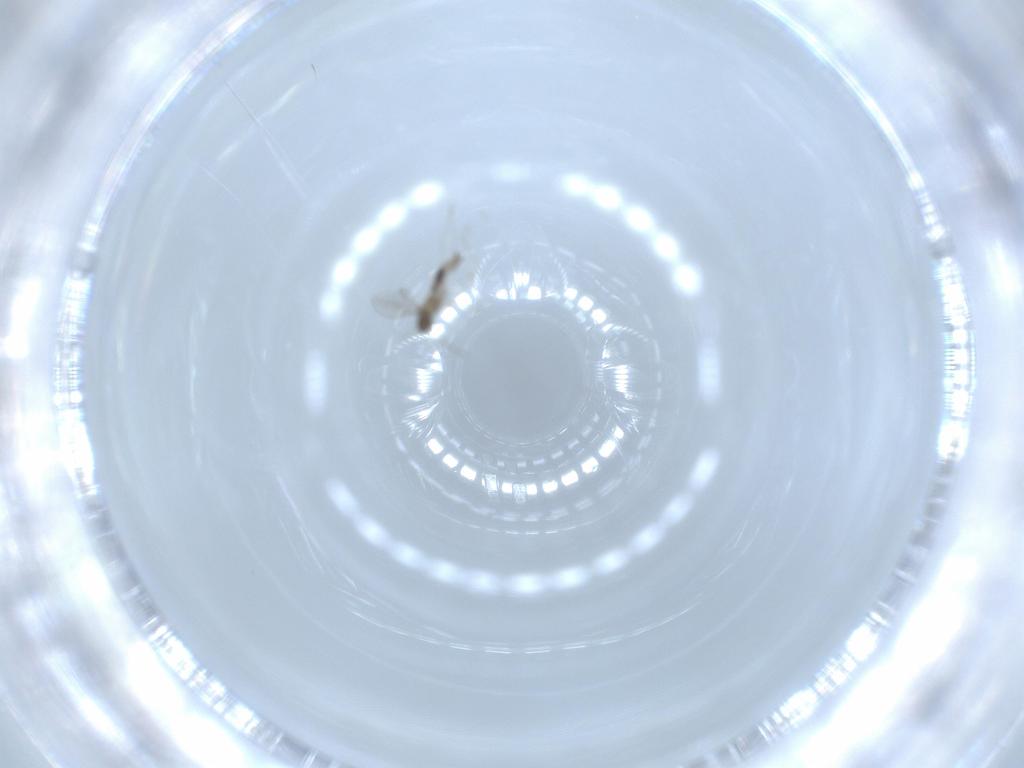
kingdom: Animalia
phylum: Arthropoda
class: Insecta
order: Diptera
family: Cecidomyiidae
